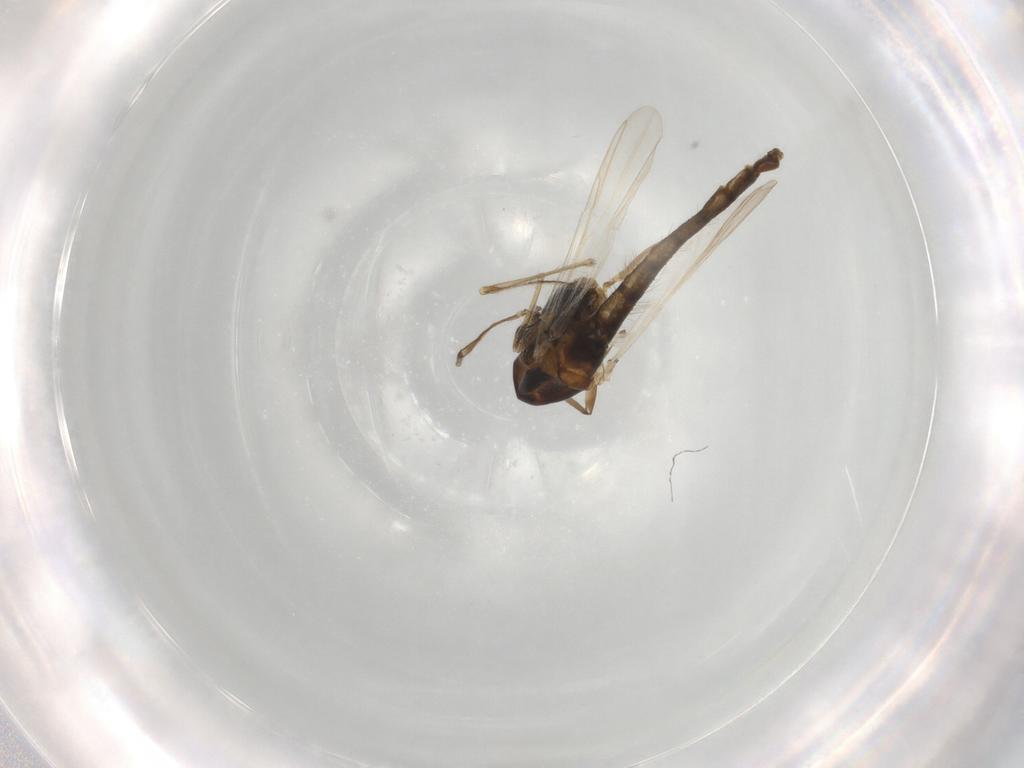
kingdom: Animalia
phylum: Arthropoda
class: Insecta
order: Diptera
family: Chironomidae
